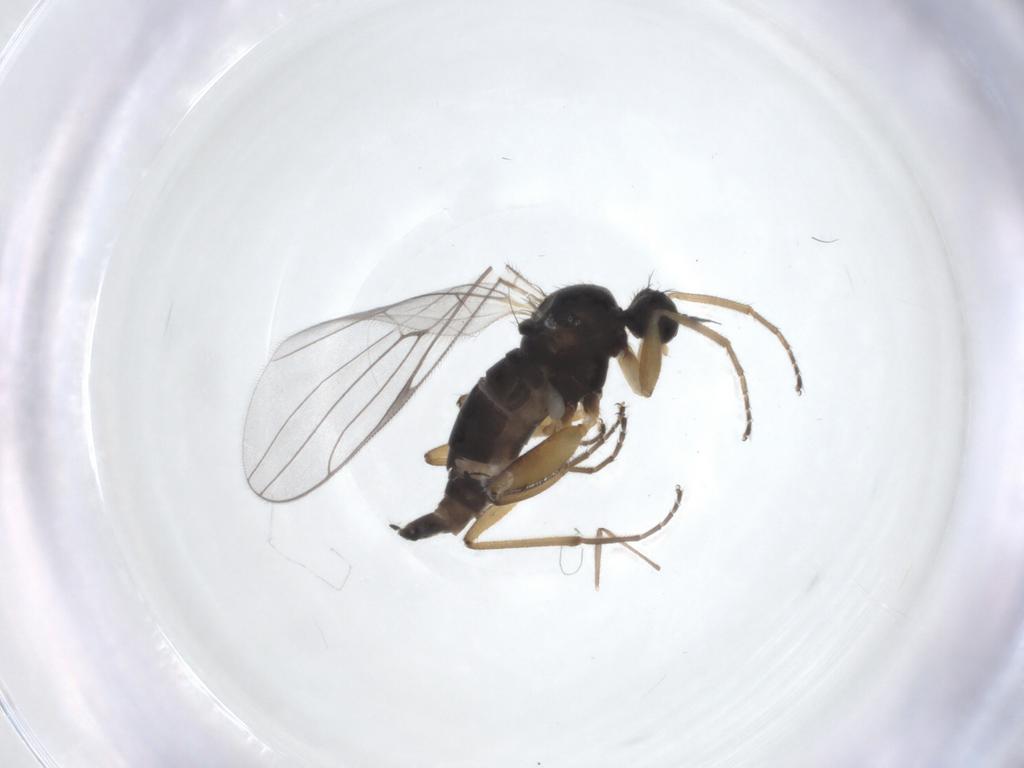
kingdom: Animalia
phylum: Arthropoda
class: Insecta
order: Diptera
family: Hybotidae
